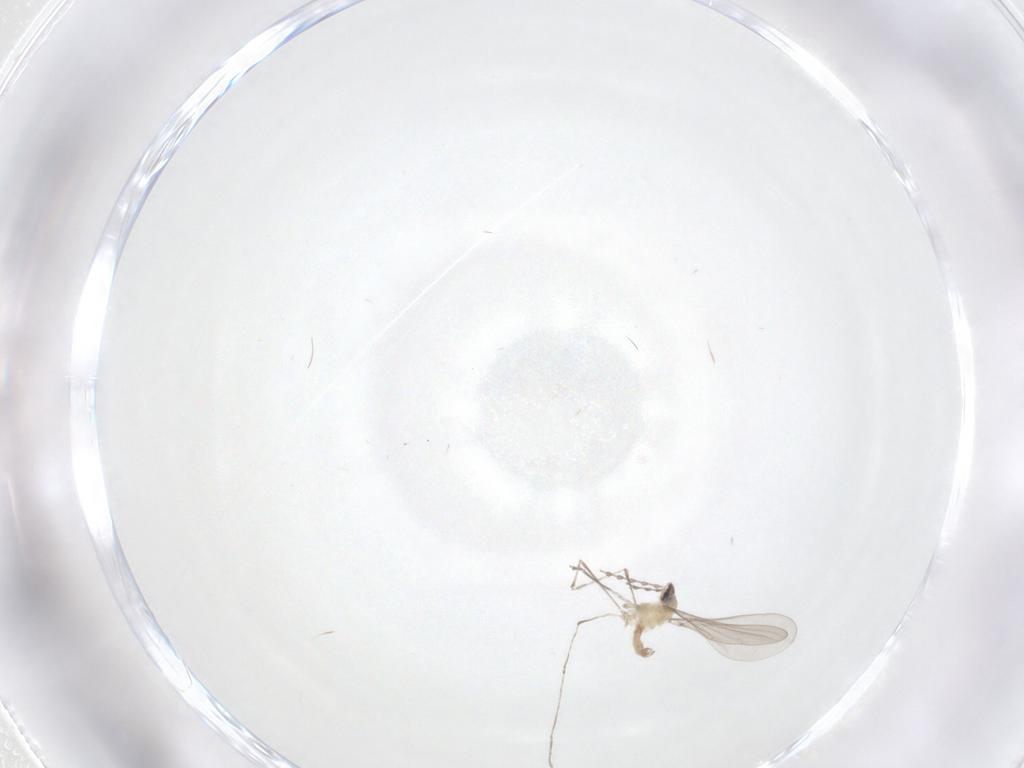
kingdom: Animalia
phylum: Arthropoda
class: Insecta
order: Diptera
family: Cecidomyiidae
